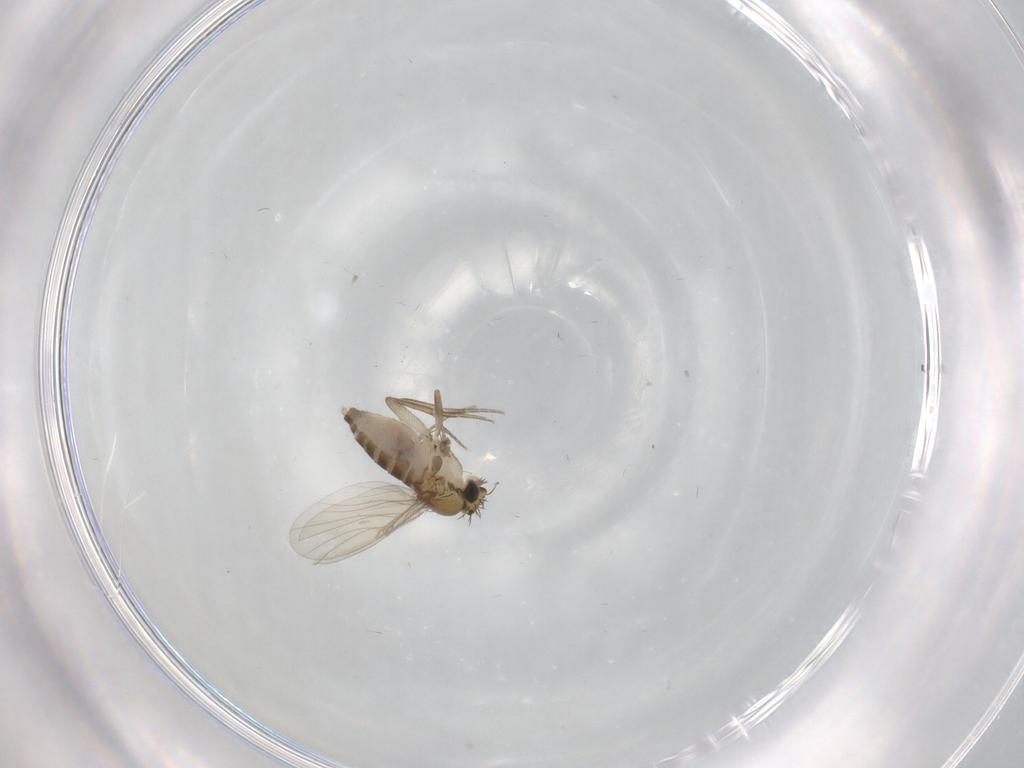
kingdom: Animalia
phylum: Arthropoda
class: Insecta
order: Diptera
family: Phoridae
